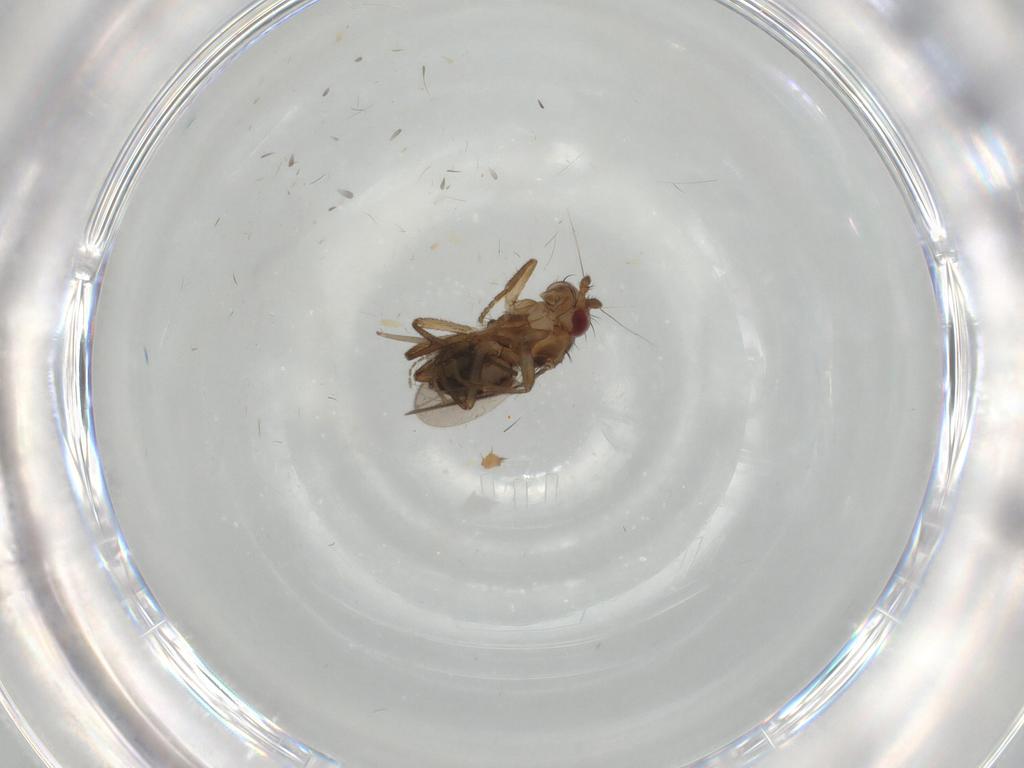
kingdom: Animalia
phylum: Arthropoda
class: Insecta
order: Diptera
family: Sphaeroceridae
